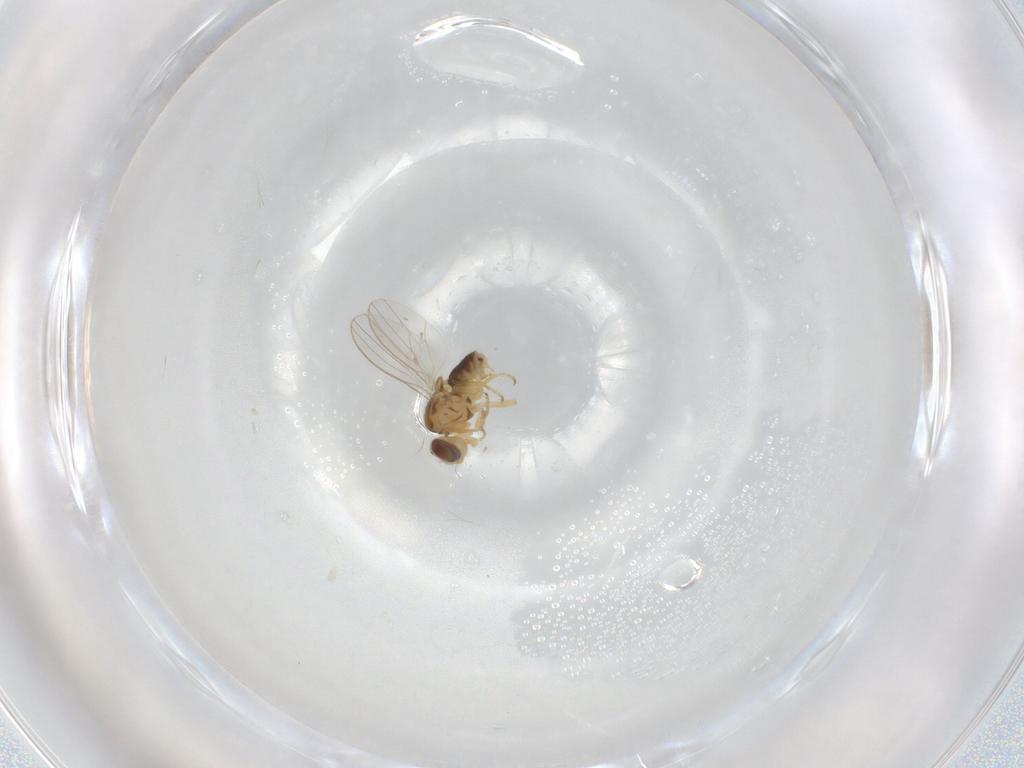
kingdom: Animalia
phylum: Arthropoda
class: Insecta
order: Diptera
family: Chyromyidae
